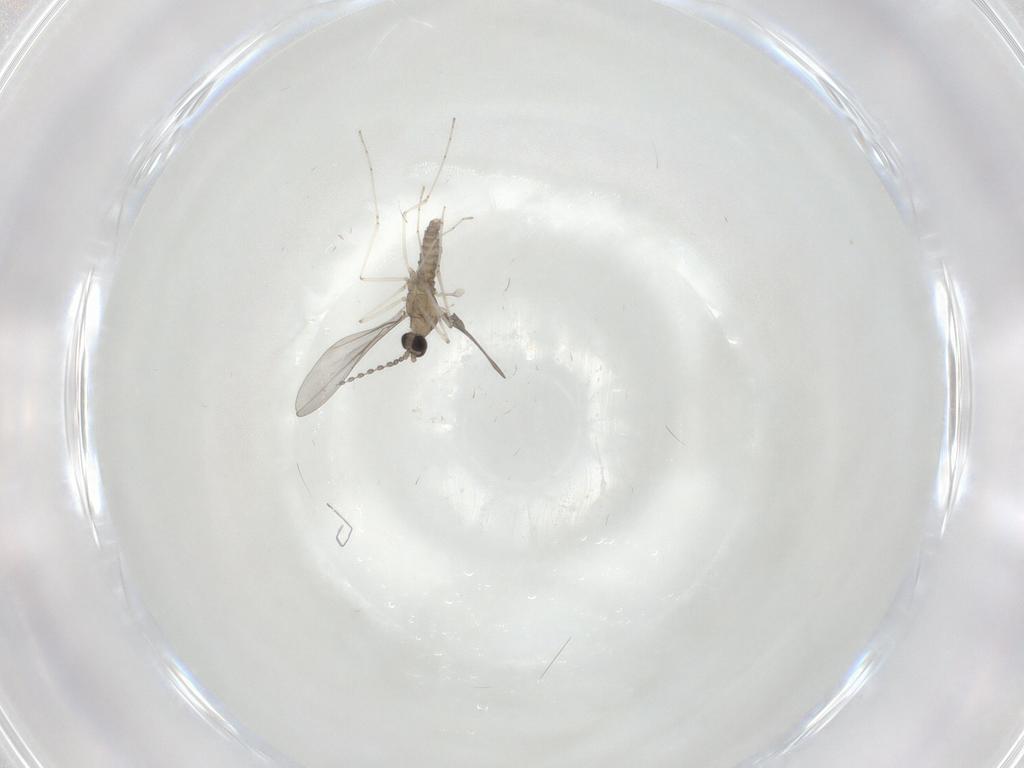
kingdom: Animalia
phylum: Arthropoda
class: Insecta
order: Diptera
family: Cecidomyiidae
